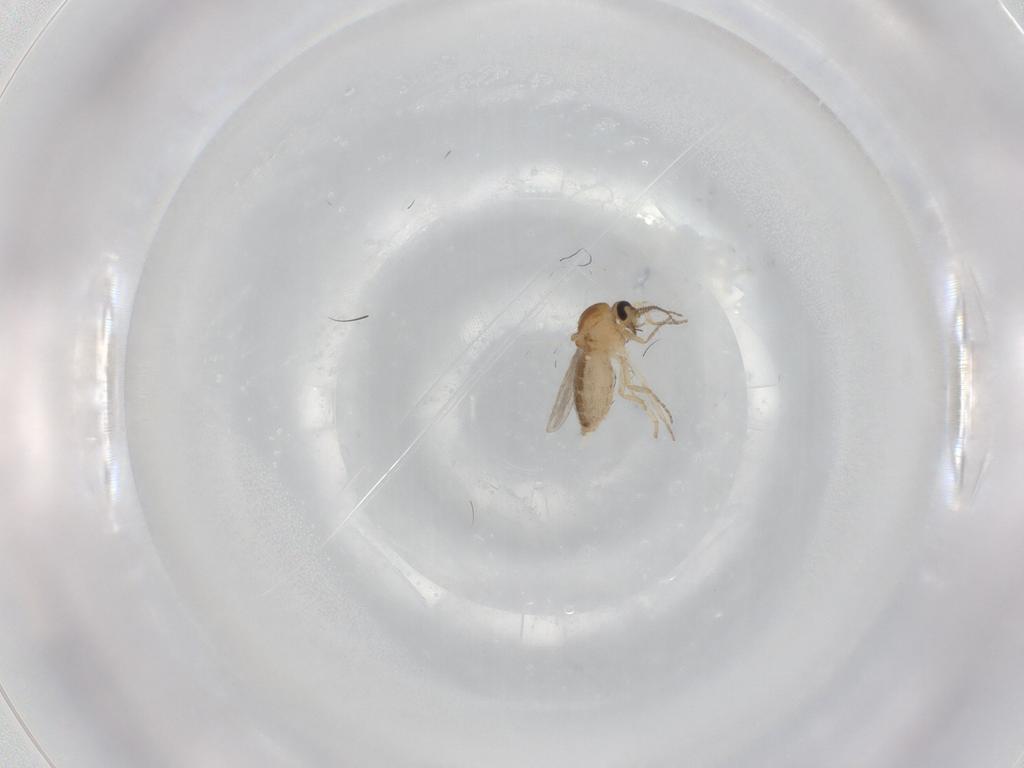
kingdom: Animalia
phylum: Arthropoda
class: Insecta
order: Diptera
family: Ceratopogonidae
